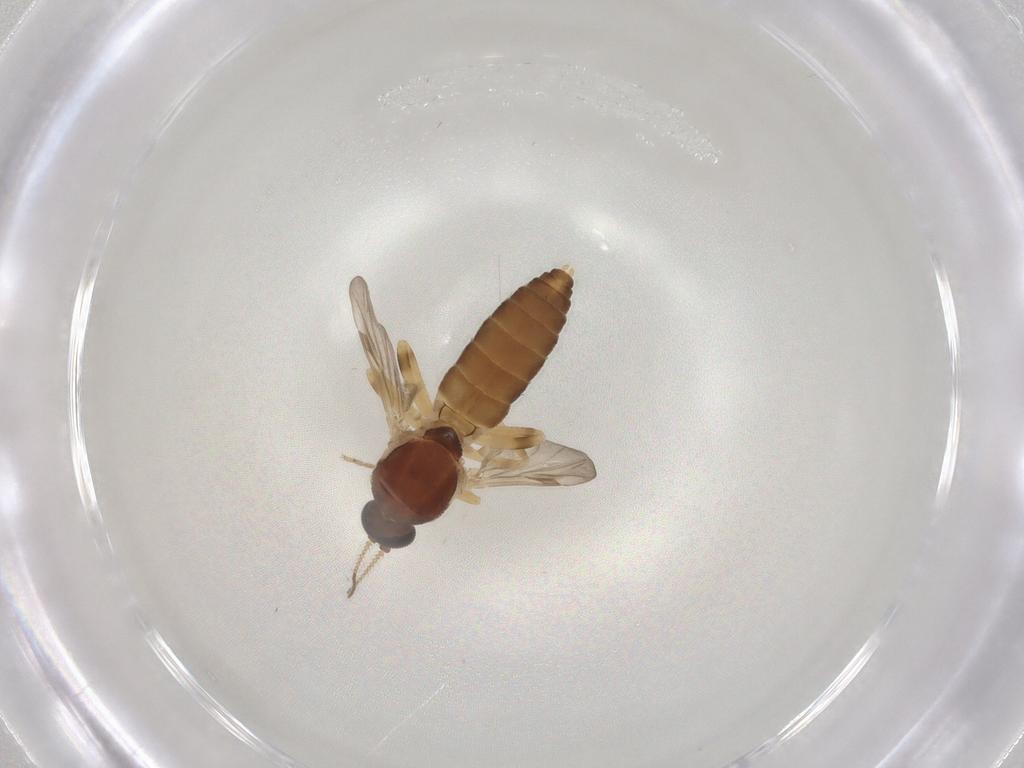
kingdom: Animalia
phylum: Arthropoda
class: Insecta
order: Diptera
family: Ceratopogonidae
